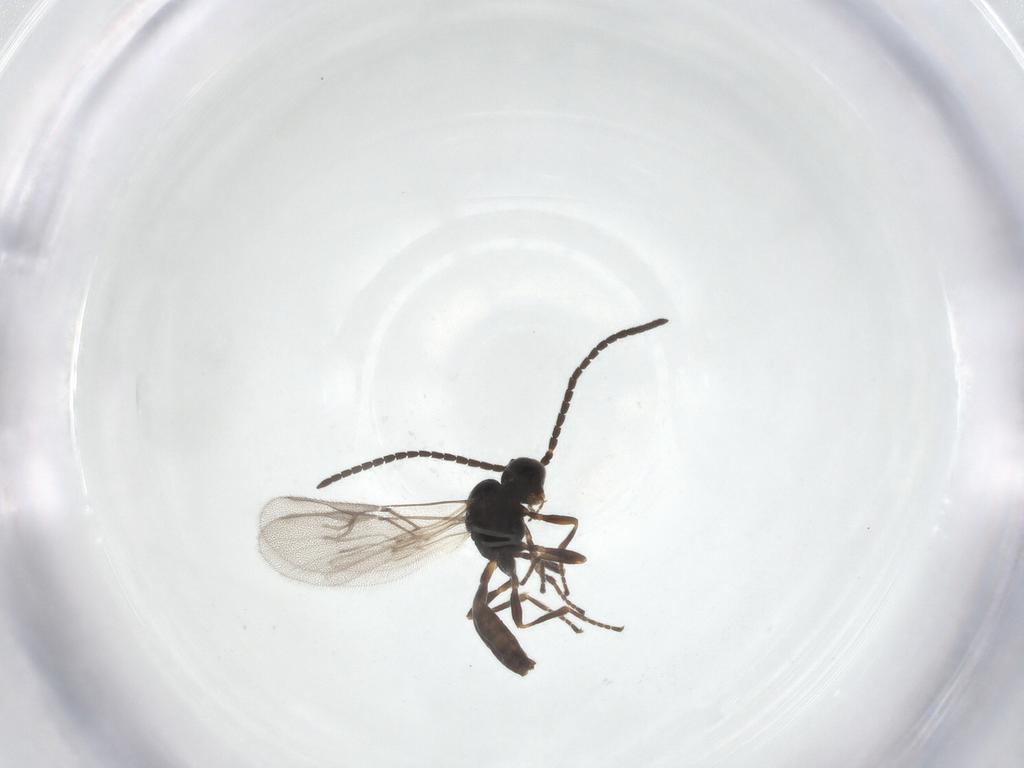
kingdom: Animalia
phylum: Arthropoda
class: Insecta
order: Hymenoptera
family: Braconidae
